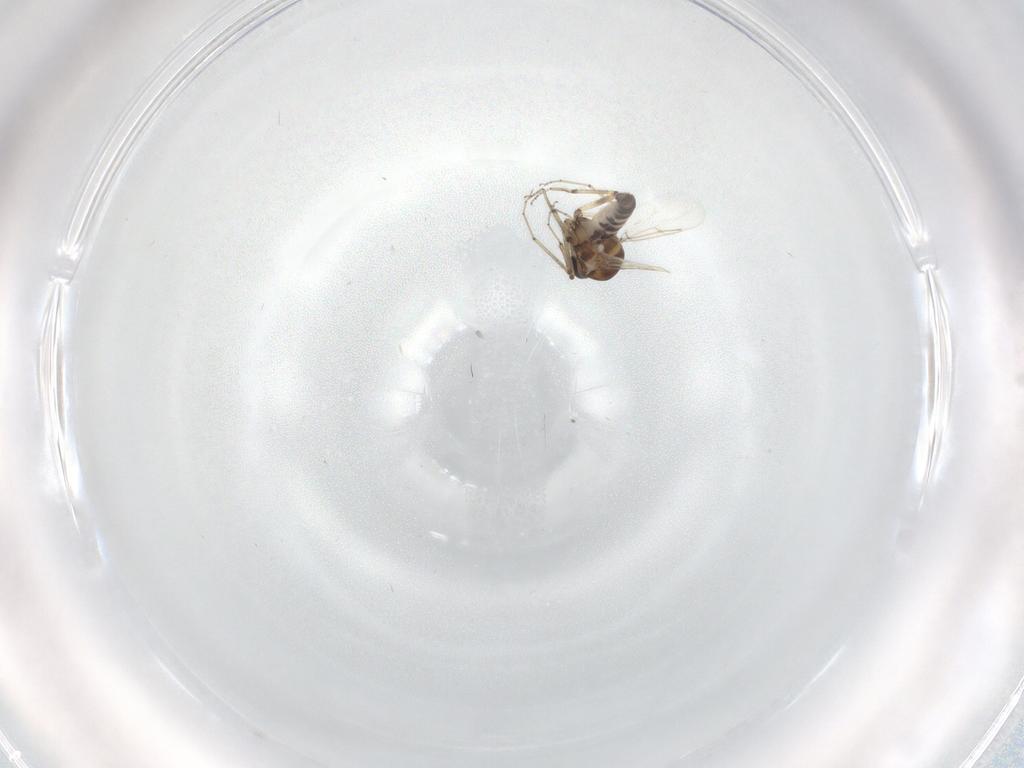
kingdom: Animalia
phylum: Arthropoda
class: Insecta
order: Diptera
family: Sciaridae
